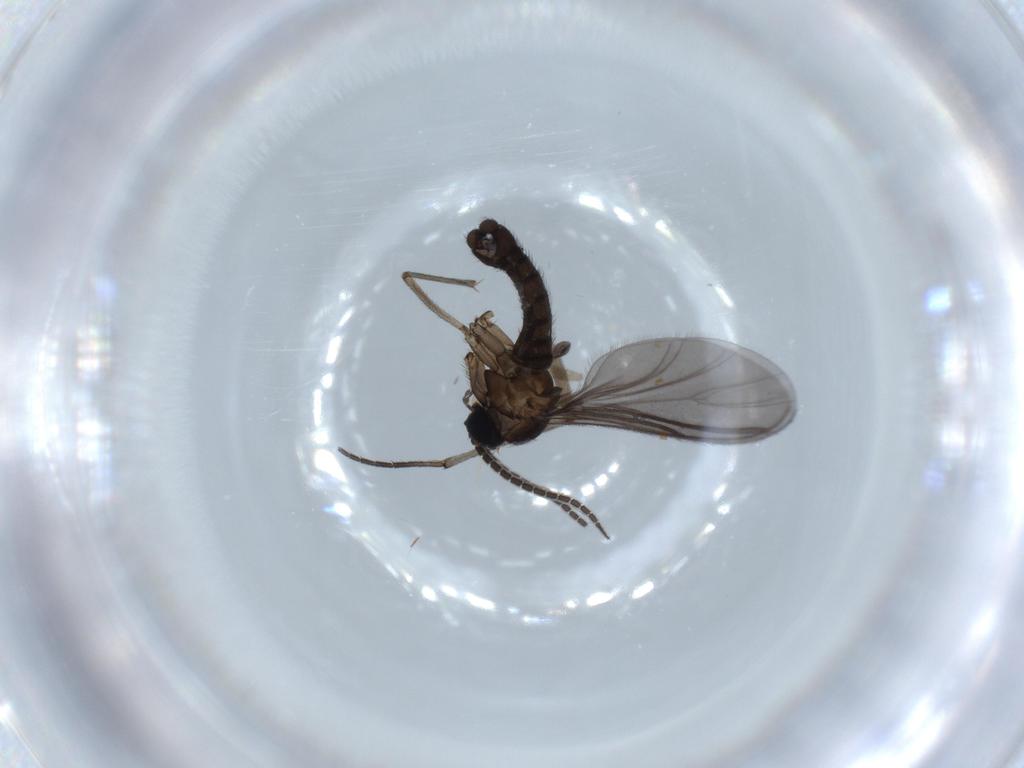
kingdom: Animalia
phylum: Arthropoda
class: Insecta
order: Diptera
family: Sciaridae
